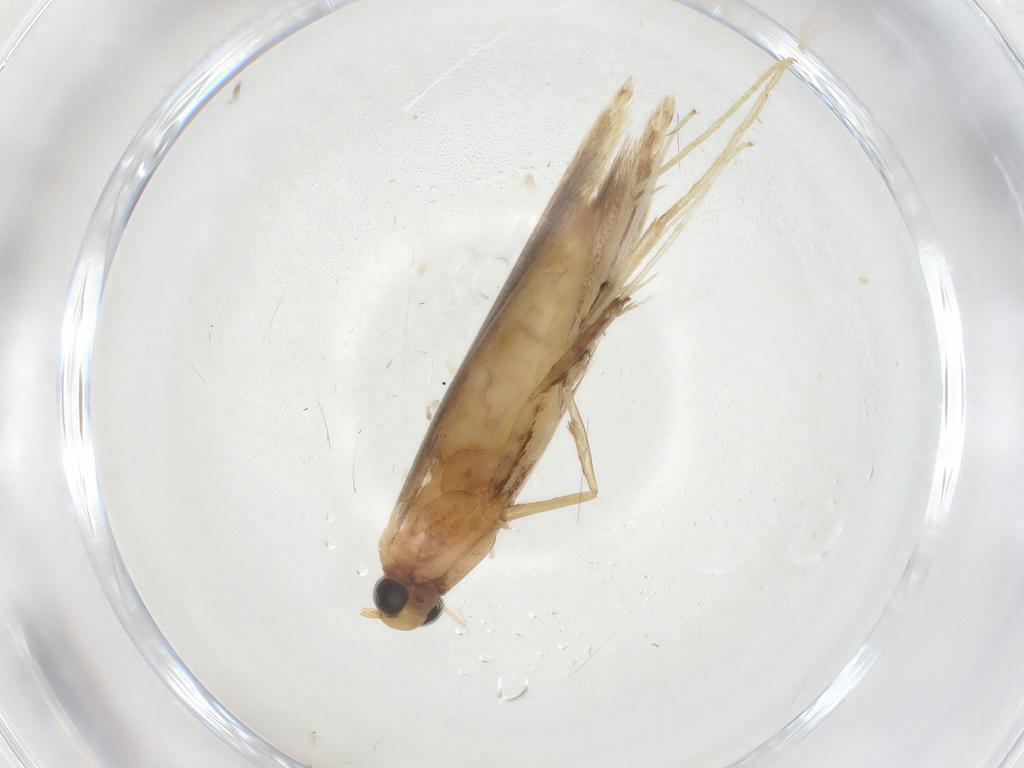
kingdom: Animalia
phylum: Arthropoda
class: Insecta
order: Lepidoptera
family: Gracillariidae
